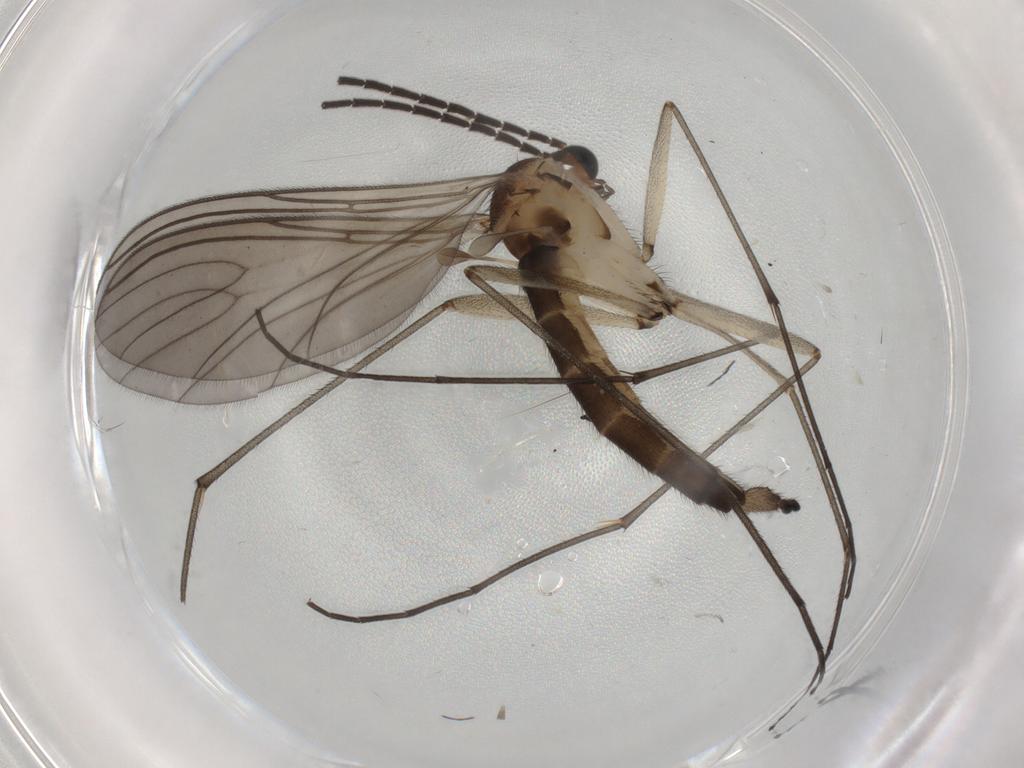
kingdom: Animalia
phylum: Arthropoda
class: Insecta
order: Diptera
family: Sciaridae
